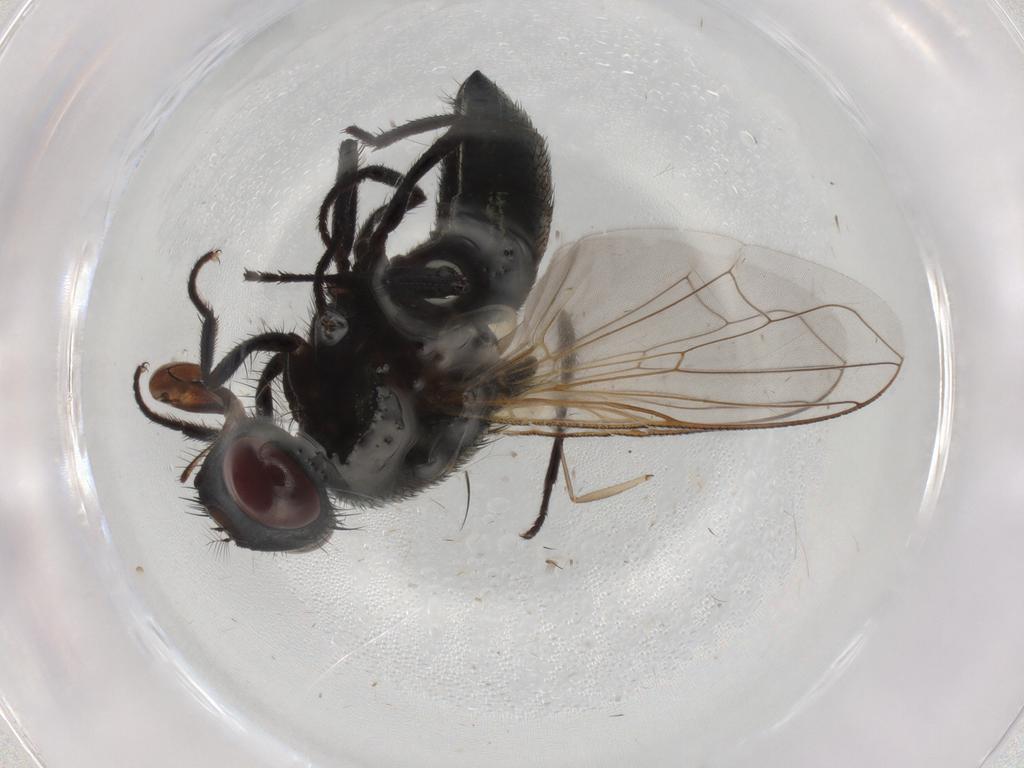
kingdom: Animalia
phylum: Arthropoda
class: Insecta
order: Diptera
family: Muscidae
